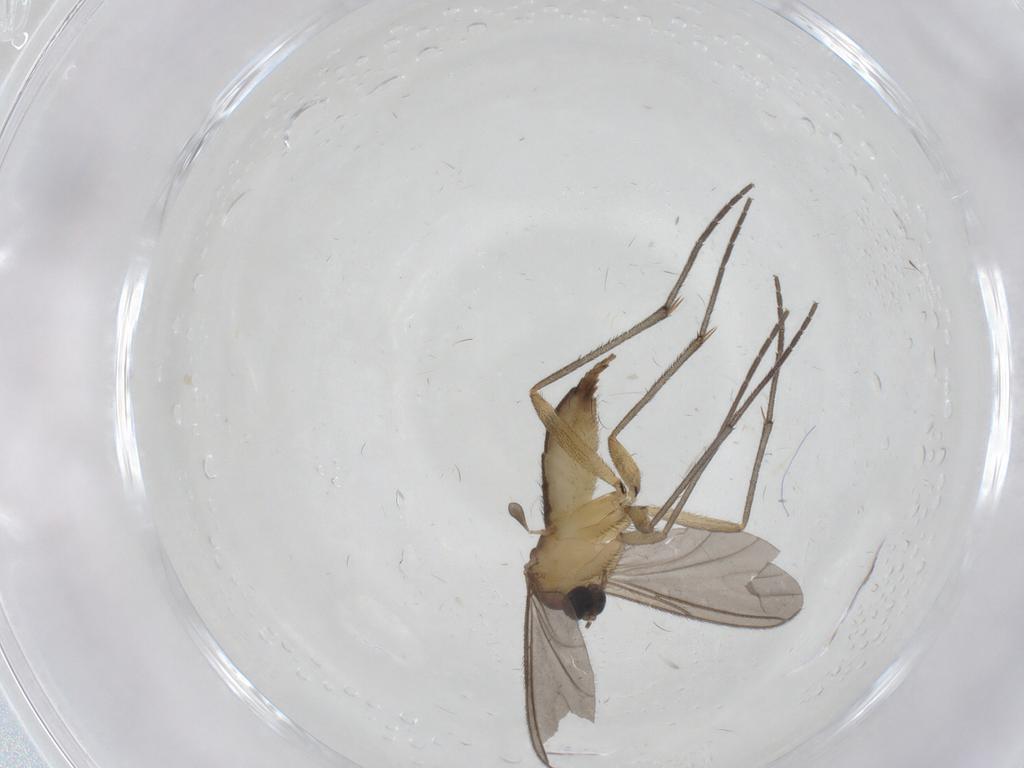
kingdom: Animalia
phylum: Arthropoda
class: Insecta
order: Diptera
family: Sciaridae
